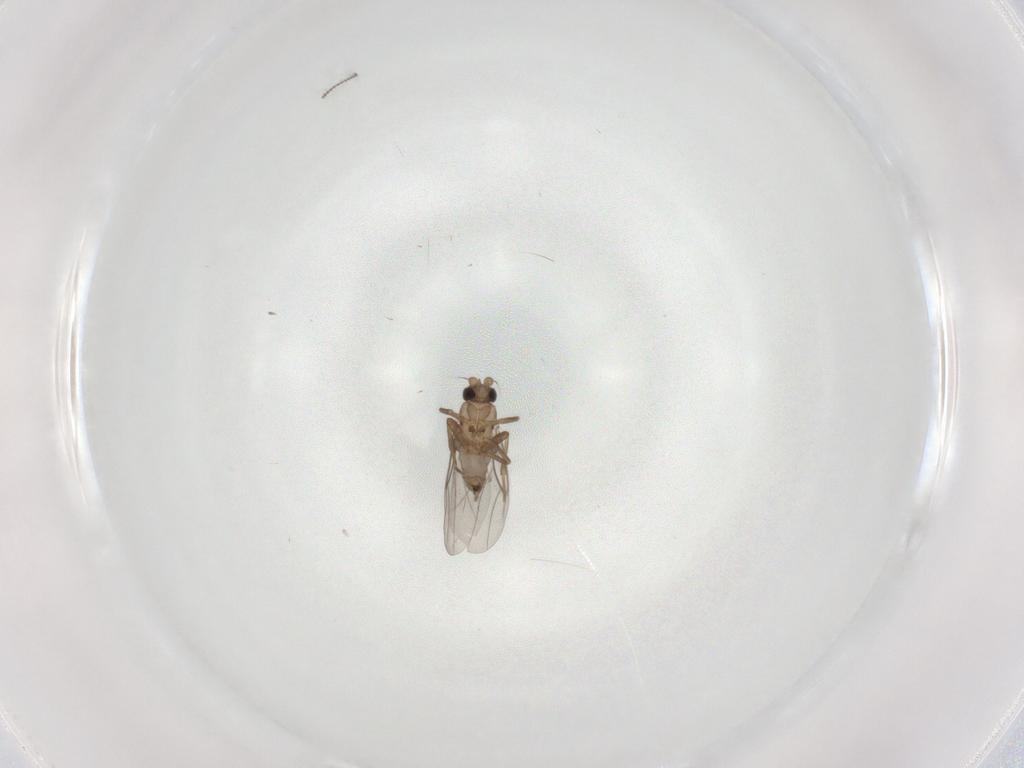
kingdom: Animalia
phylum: Arthropoda
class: Insecta
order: Diptera
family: Ceratopogonidae
